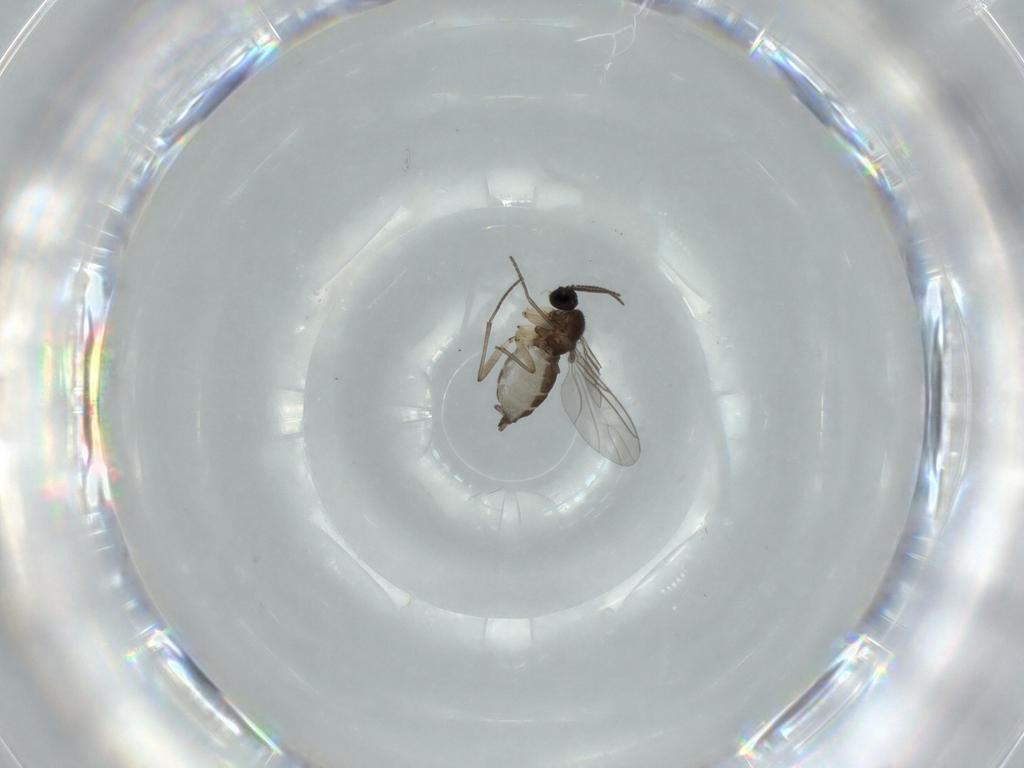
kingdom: Animalia
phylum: Arthropoda
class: Insecta
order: Diptera
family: Sciaridae
